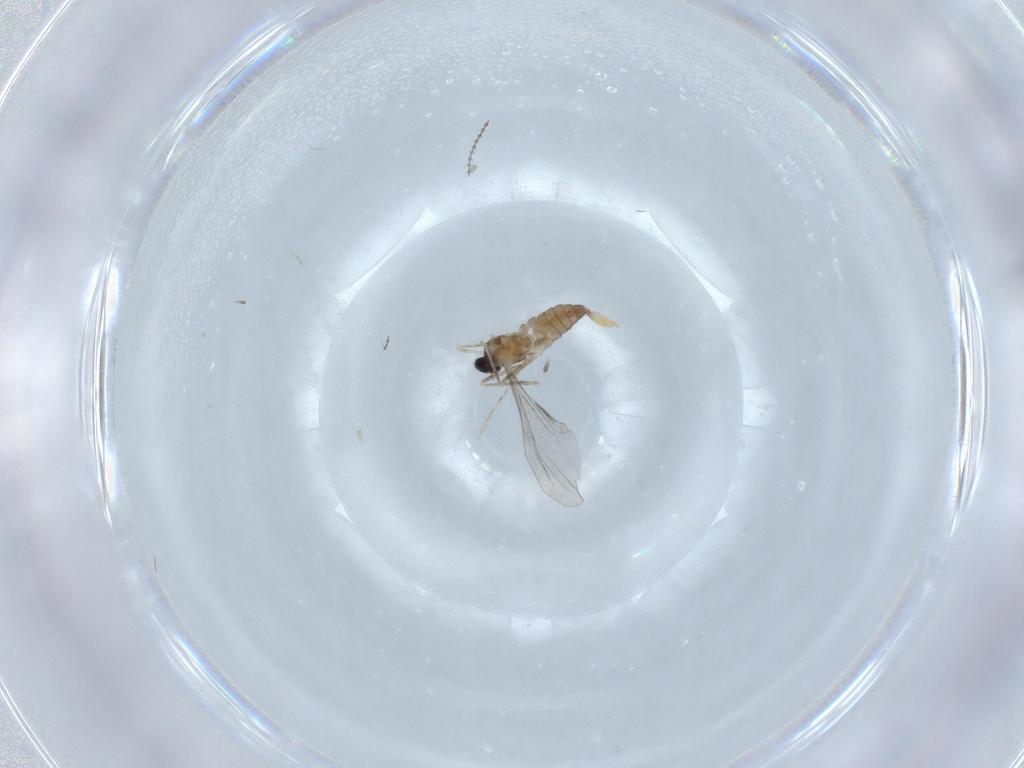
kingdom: Animalia
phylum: Arthropoda
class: Insecta
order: Diptera
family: Cecidomyiidae
